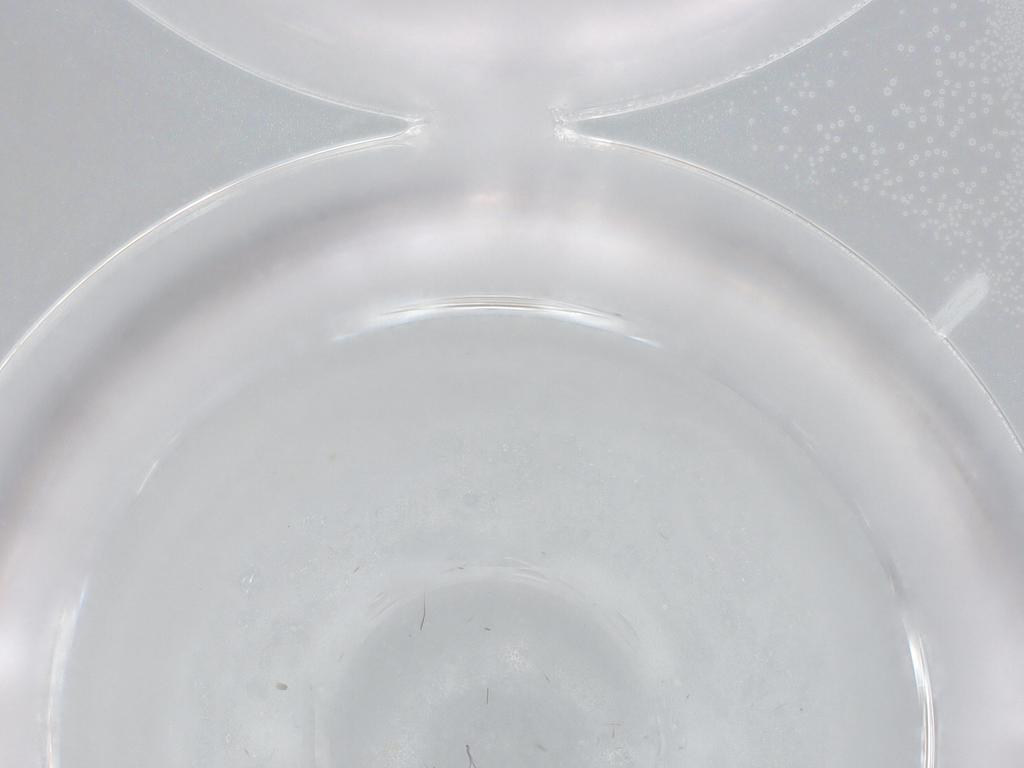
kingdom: Animalia
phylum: Arthropoda
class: Insecta
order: Diptera
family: Phoridae
